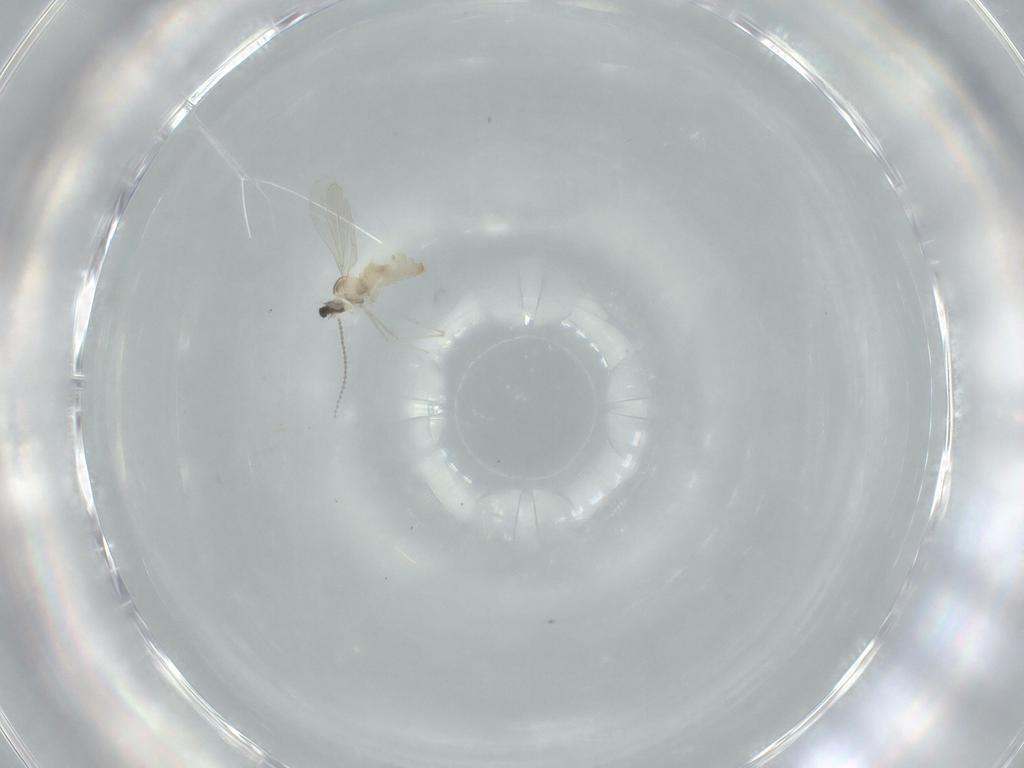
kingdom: Animalia
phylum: Arthropoda
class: Insecta
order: Diptera
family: Cecidomyiidae
